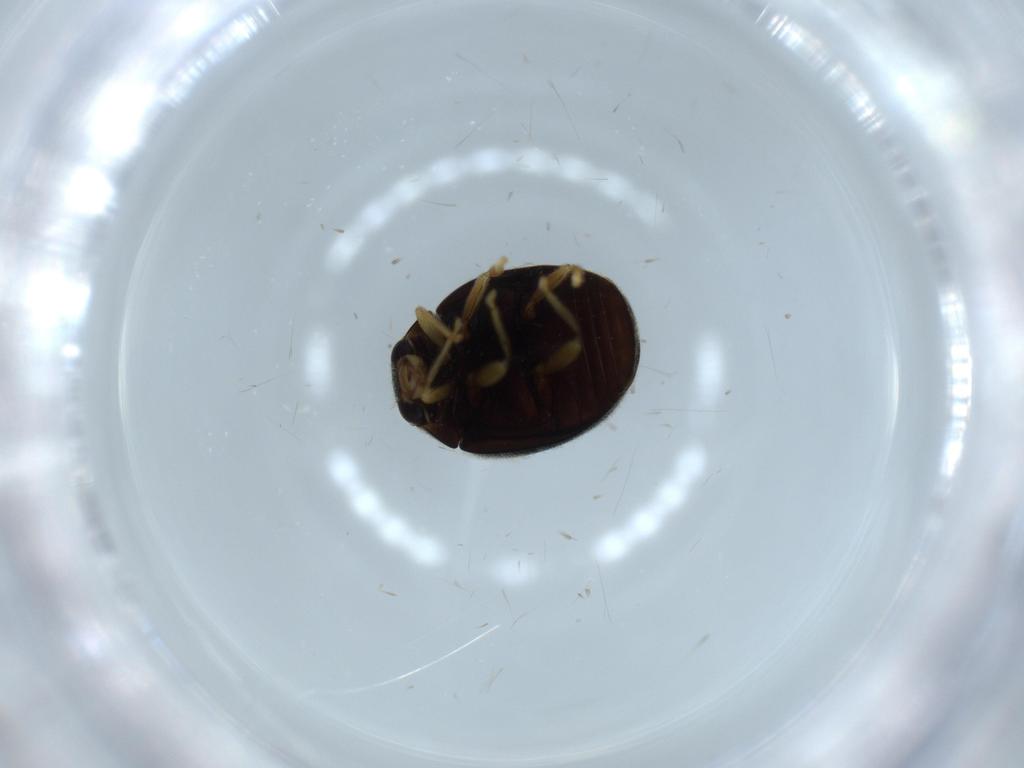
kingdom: Animalia
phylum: Arthropoda
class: Insecta
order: Coleoptera
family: Coccinellidae
